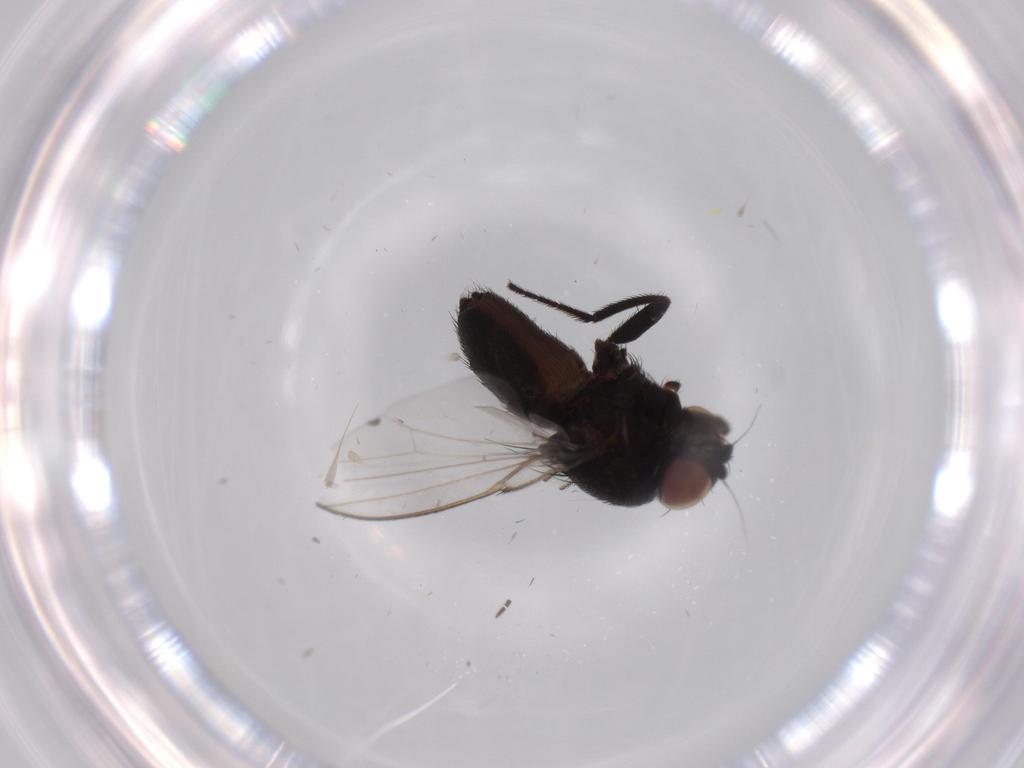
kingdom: Animalia
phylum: Arthropoda
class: Insecta
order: Diptera
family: Milichiidae
